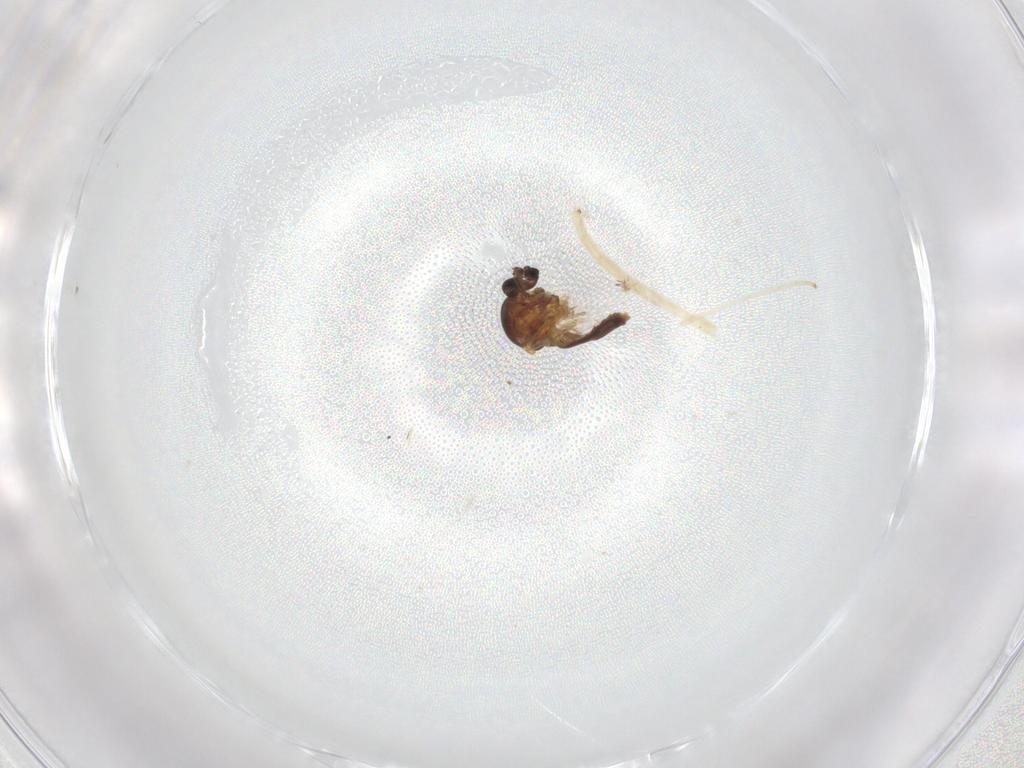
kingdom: Animalia
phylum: Arthropoda
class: Insecta
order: Diptera
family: Ceratopogonidae
